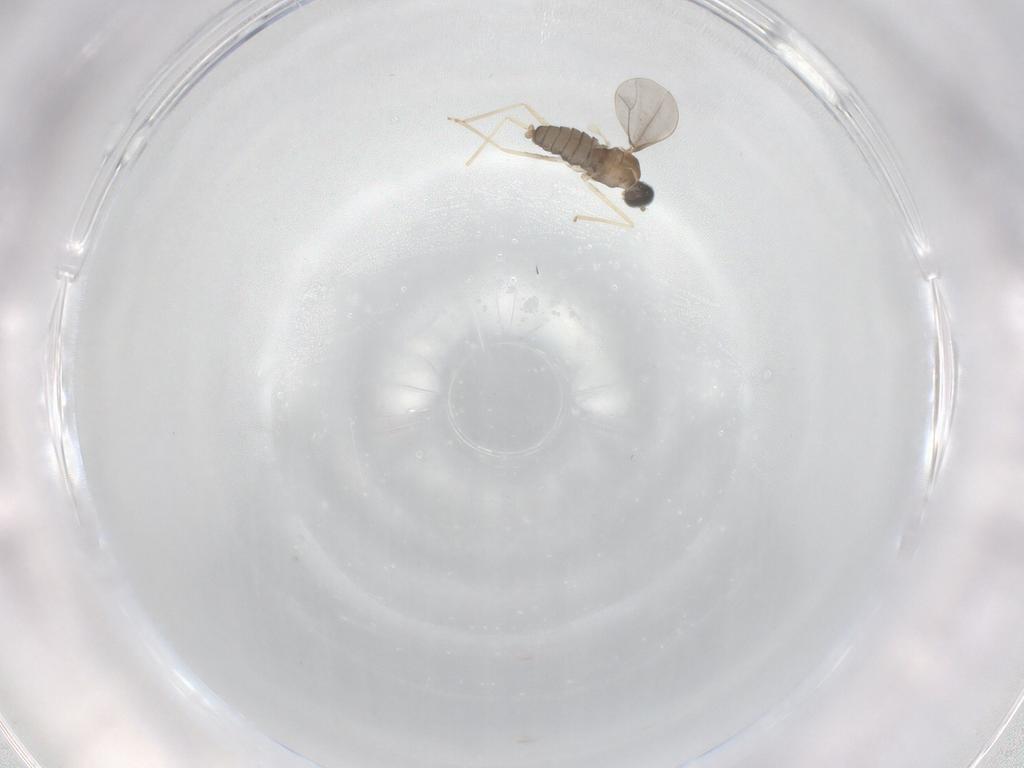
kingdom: Animalia
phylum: Arthropoda
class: Insecta
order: Diptera
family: Cecidomyiidae
